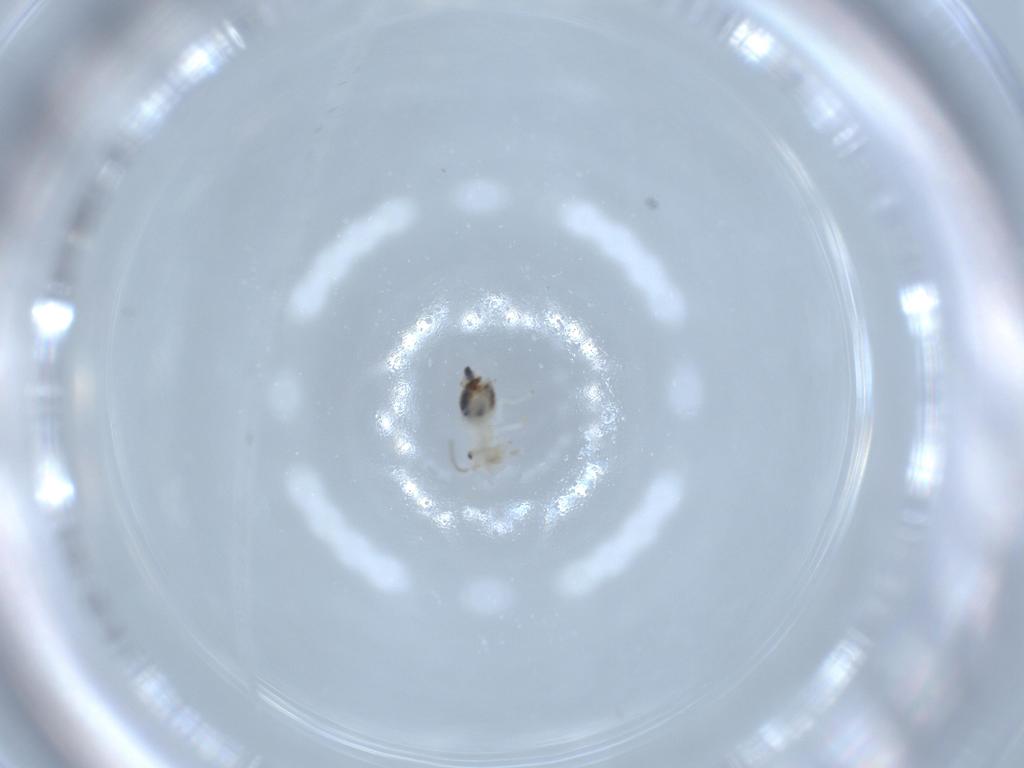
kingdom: Animalia
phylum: Arthropoda
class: Insecta
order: Psocodea
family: Caeciliusidae
